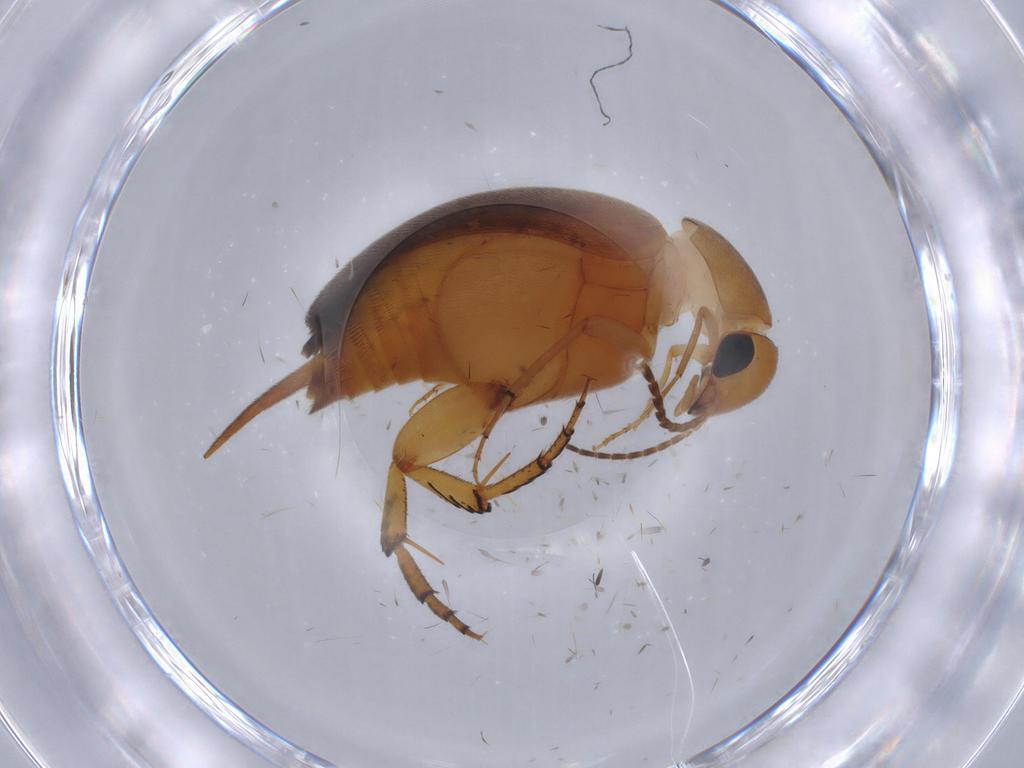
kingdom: Animalia
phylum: Arthropoda
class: Insecta
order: Coleoptera
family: Mordellidae
